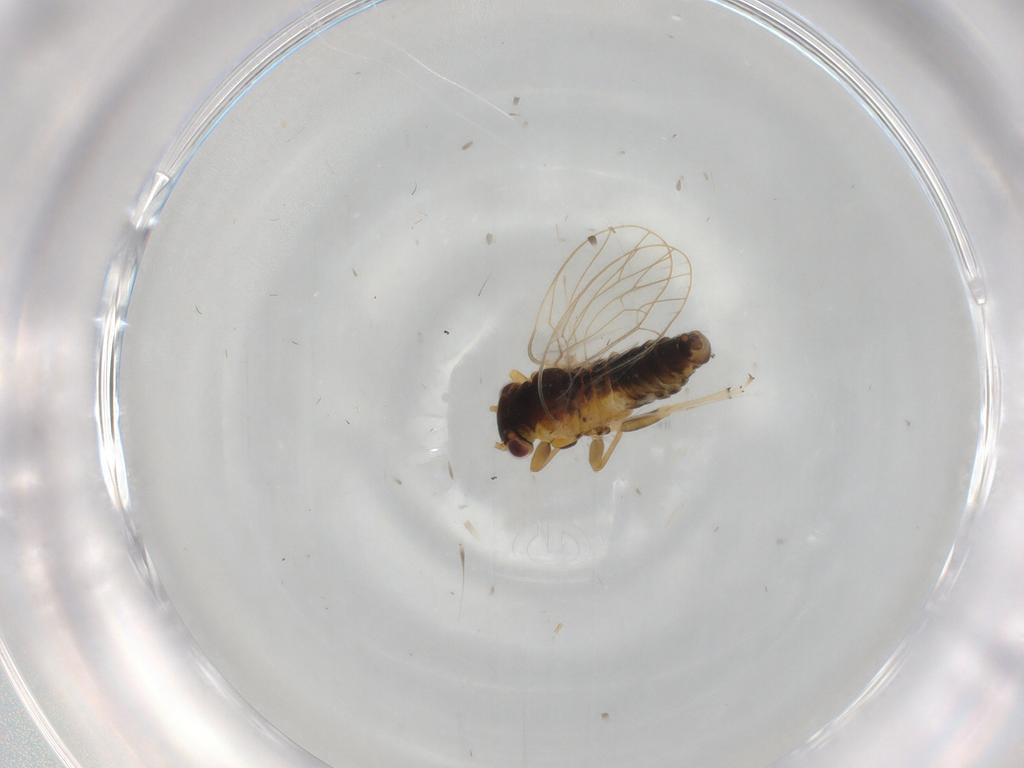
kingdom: Animalia
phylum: Arthropoda
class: Insecta
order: Hemiptera
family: Psyllidae
